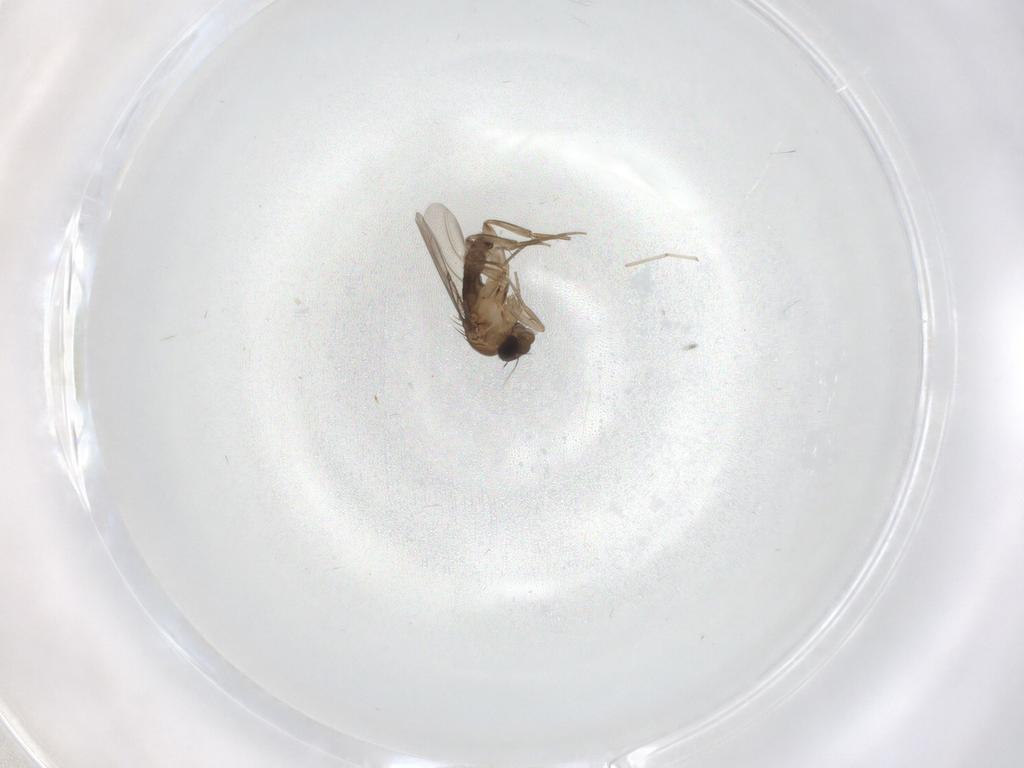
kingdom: Animalia
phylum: Arthropoda
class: Insecta
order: Diptera
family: Phoridae
